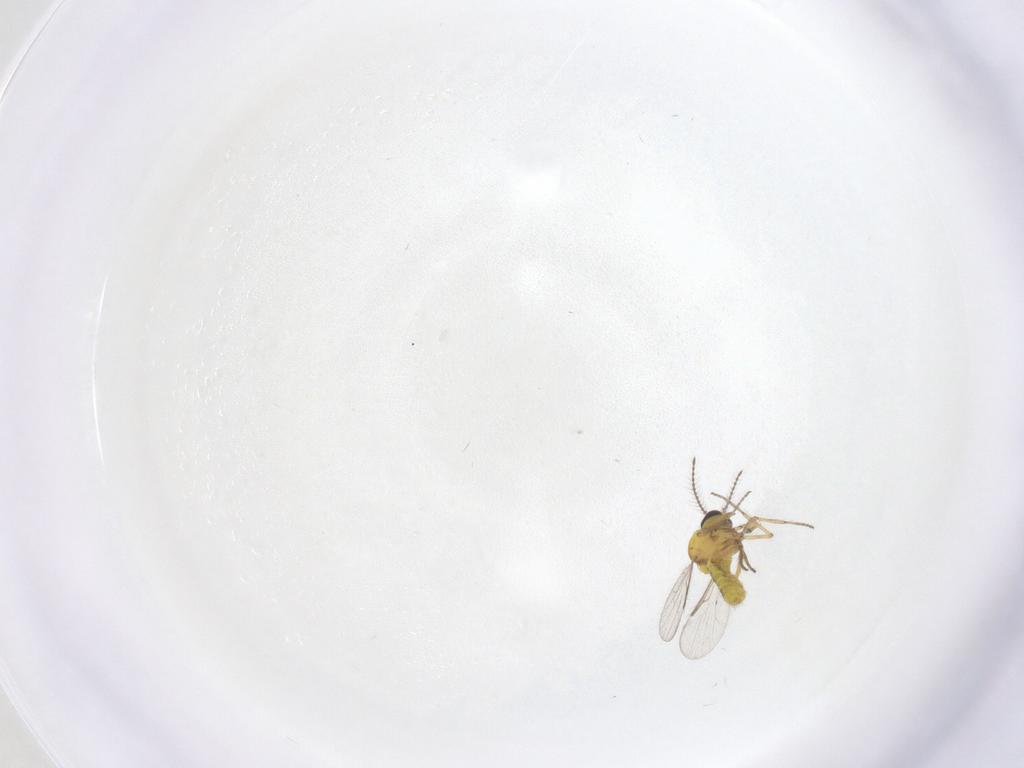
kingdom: Animalia
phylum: Arthropoda
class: Insecta
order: Diptera
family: Ceratopogonidae
